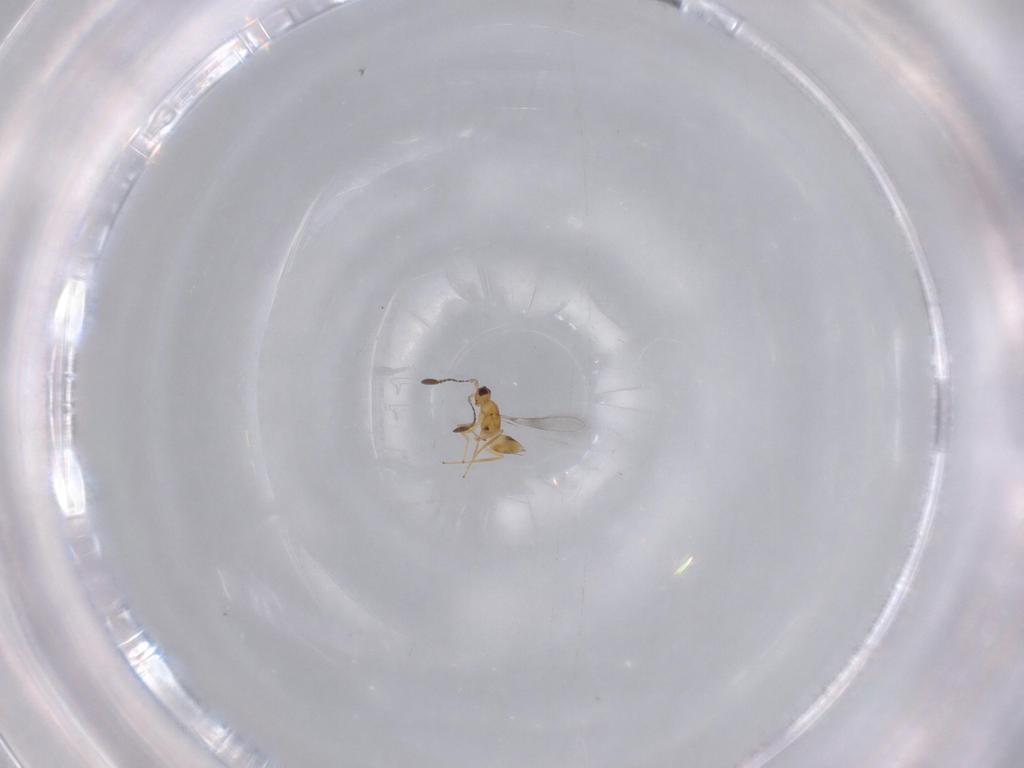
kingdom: Animalia
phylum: Arthropoda
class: Insecta
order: Hymenoptera
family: Mymaridae
